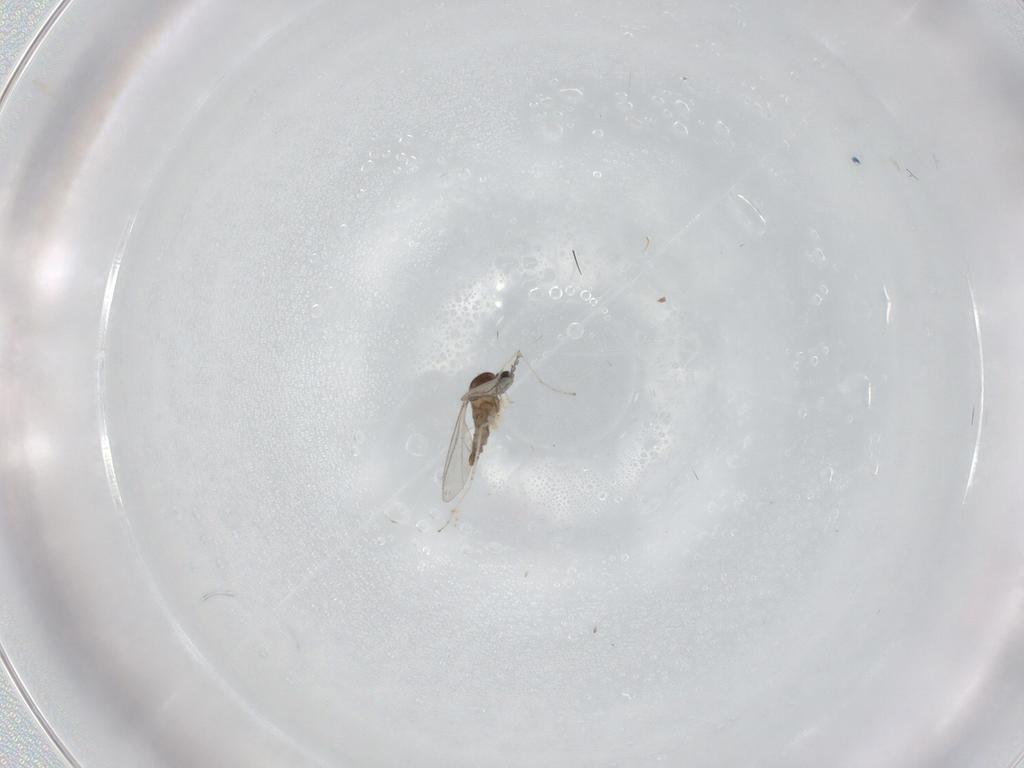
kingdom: Animalia
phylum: Arthropoda
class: Insecta
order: Diptera
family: Cecidomyiidae
